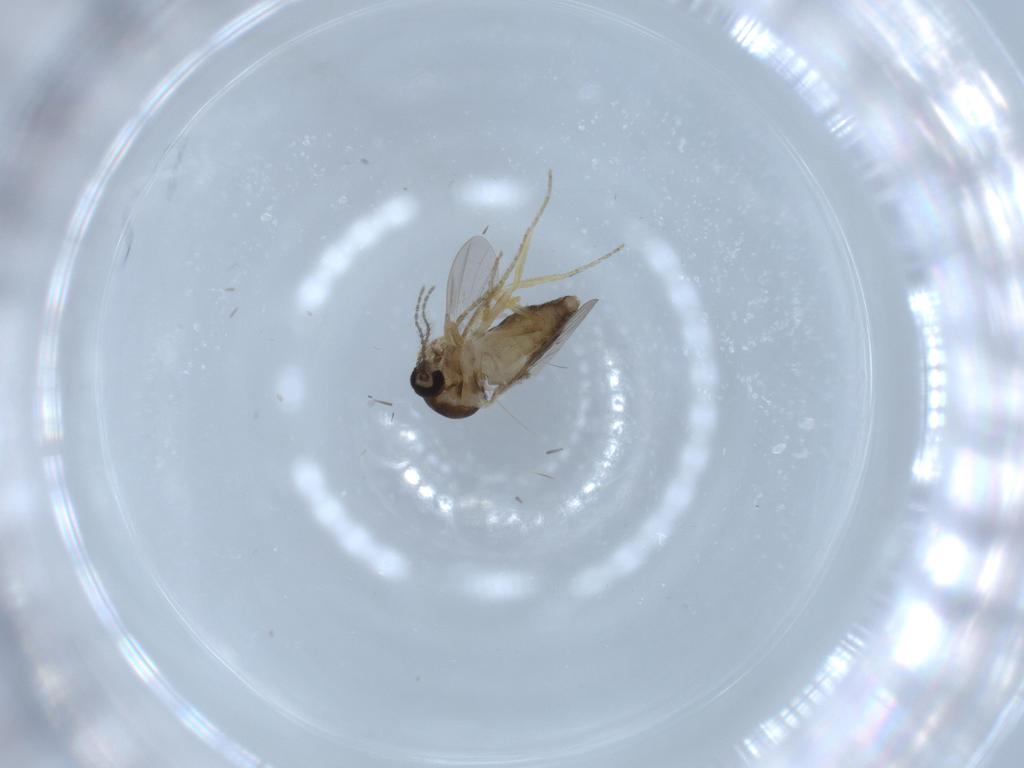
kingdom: Animalia
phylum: Arthropoda
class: Insecta
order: Diptera
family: Ceratopogonidae
